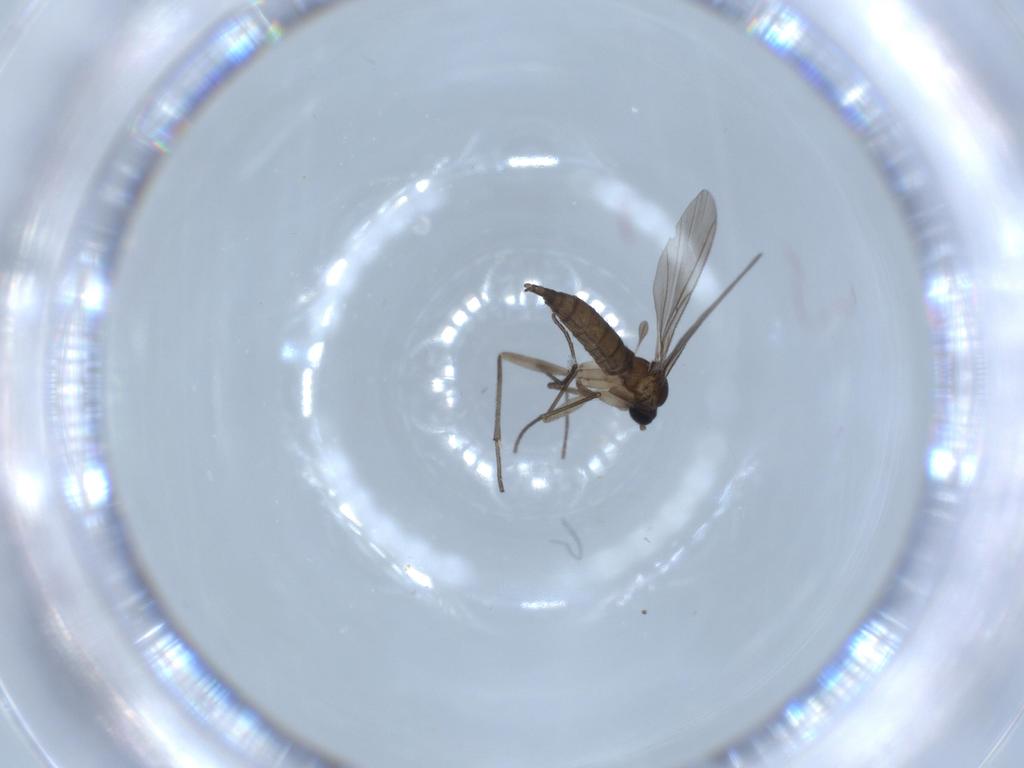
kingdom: Animalia
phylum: Arthropoda
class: Insecta
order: Diptera
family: Sciaridae
